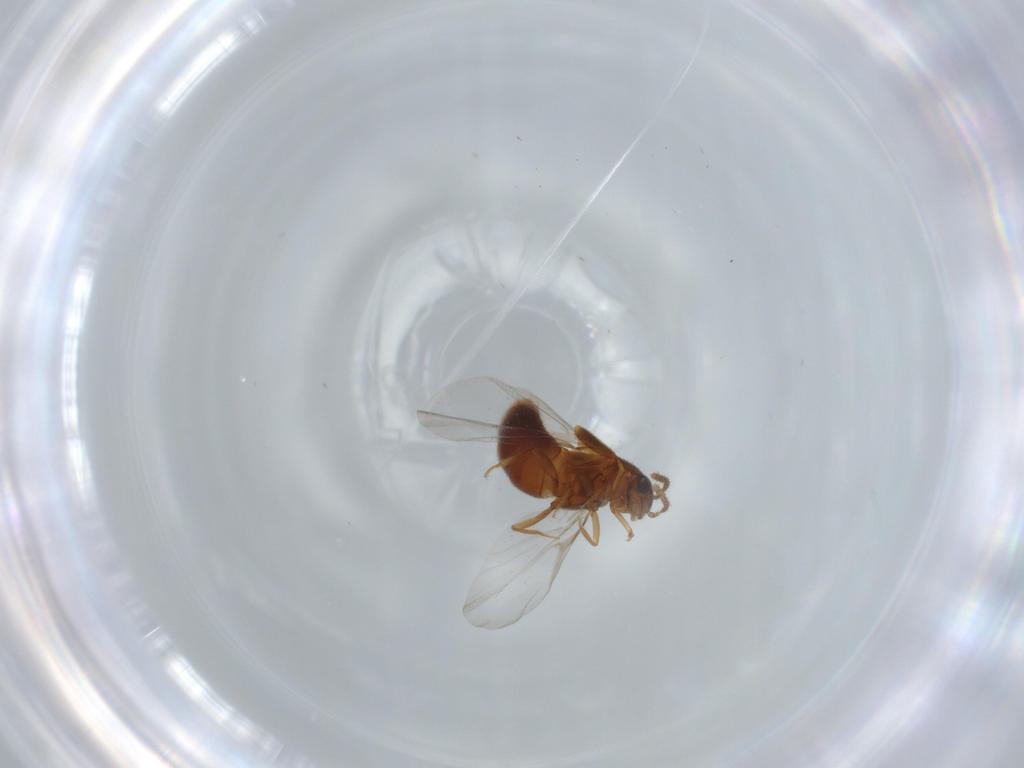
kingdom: Animalia
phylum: Arthropoda
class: Insecta
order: Coleoptera
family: Staphylinidae
